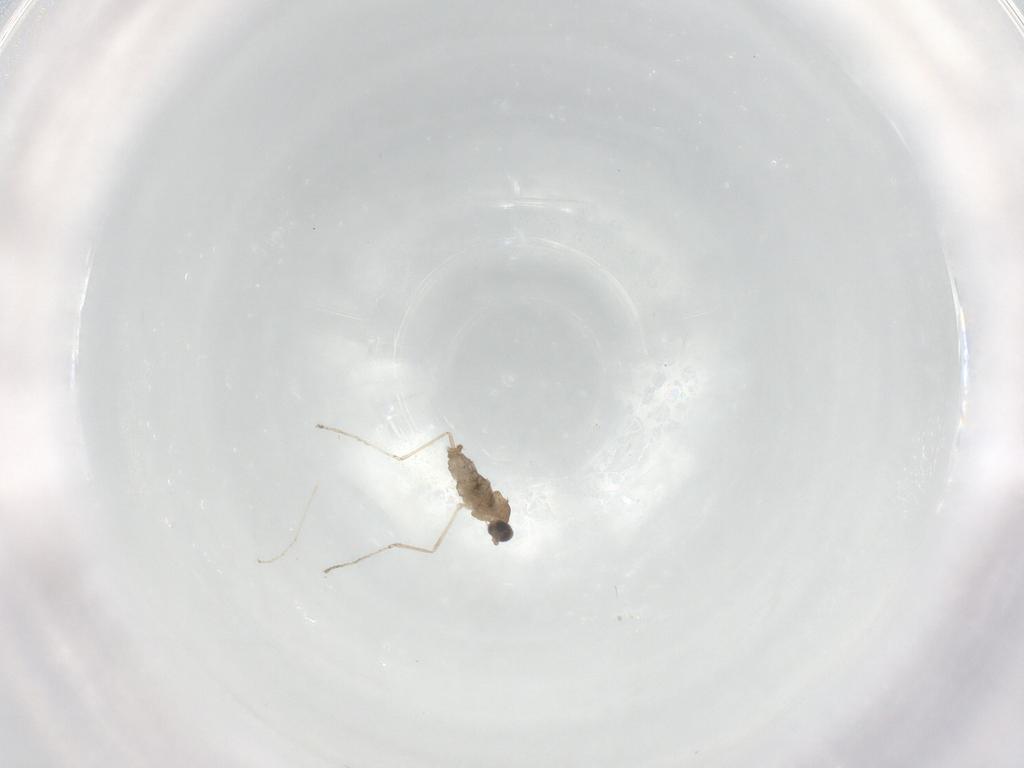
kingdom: Animalia
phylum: Arthropoda
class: Insecta
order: Diptera
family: Cecidomyiidae
